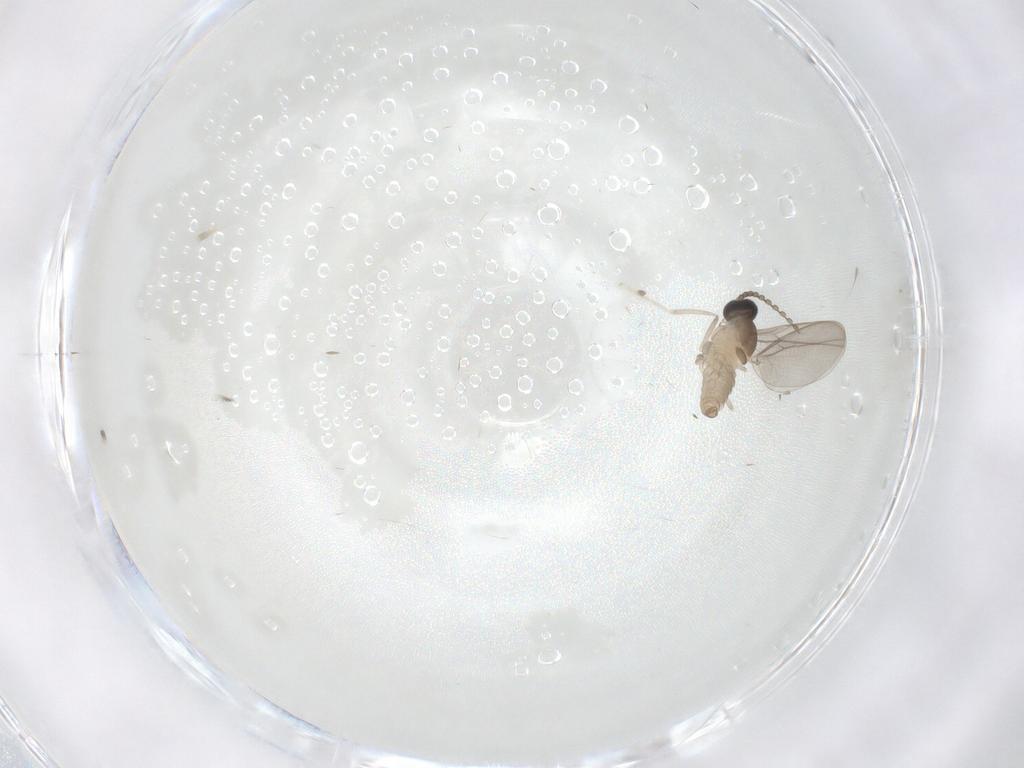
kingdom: Animalia
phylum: Arthropoda
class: Insecta
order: Diptera
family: Cecidomyiidae
